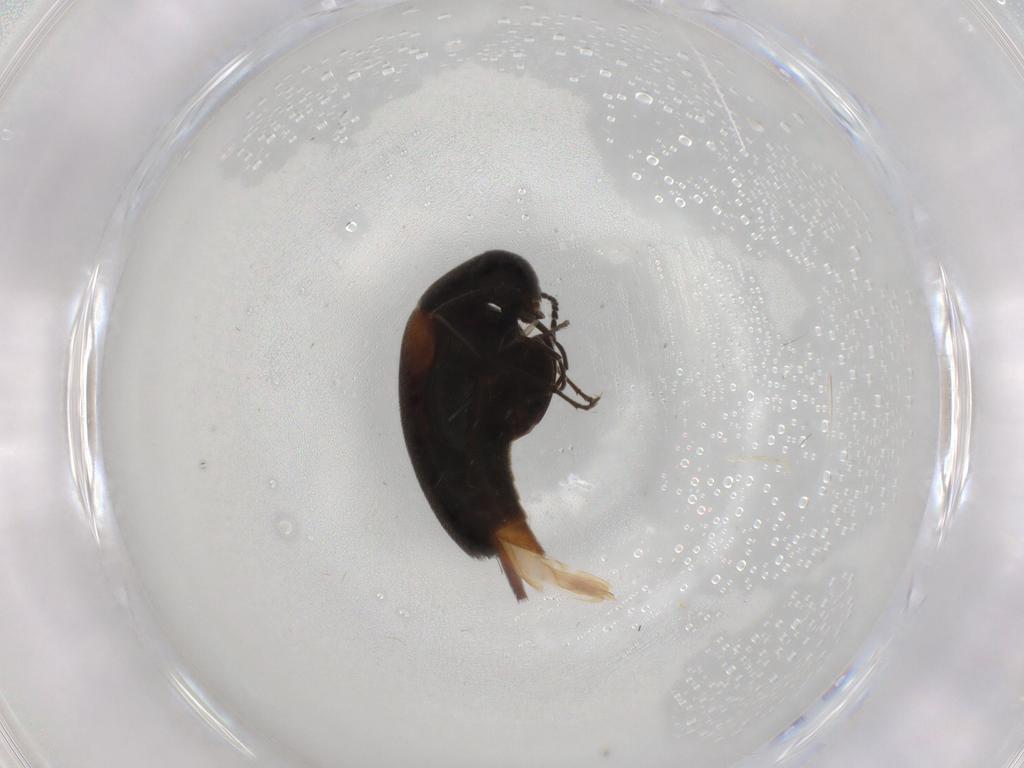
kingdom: Animalia
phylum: Arthropoda
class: Insecta
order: Coleoptera
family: Mordellidae
